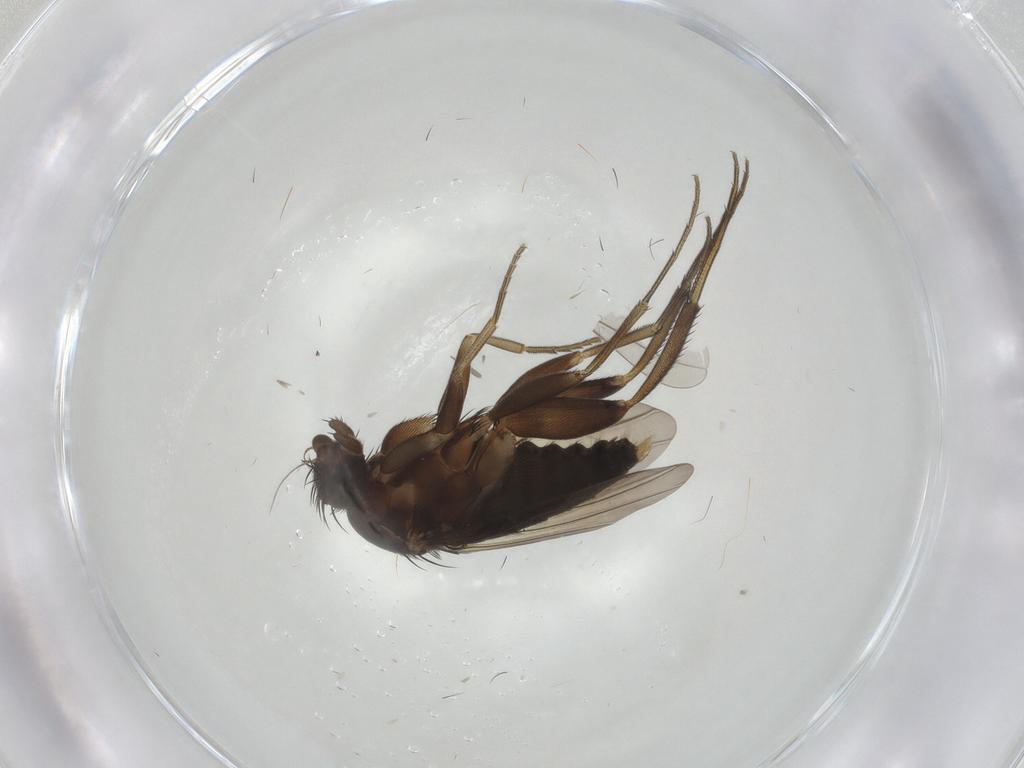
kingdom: Animalia
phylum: Arthropoda
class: Insecta
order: Diptera
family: Phoridae
